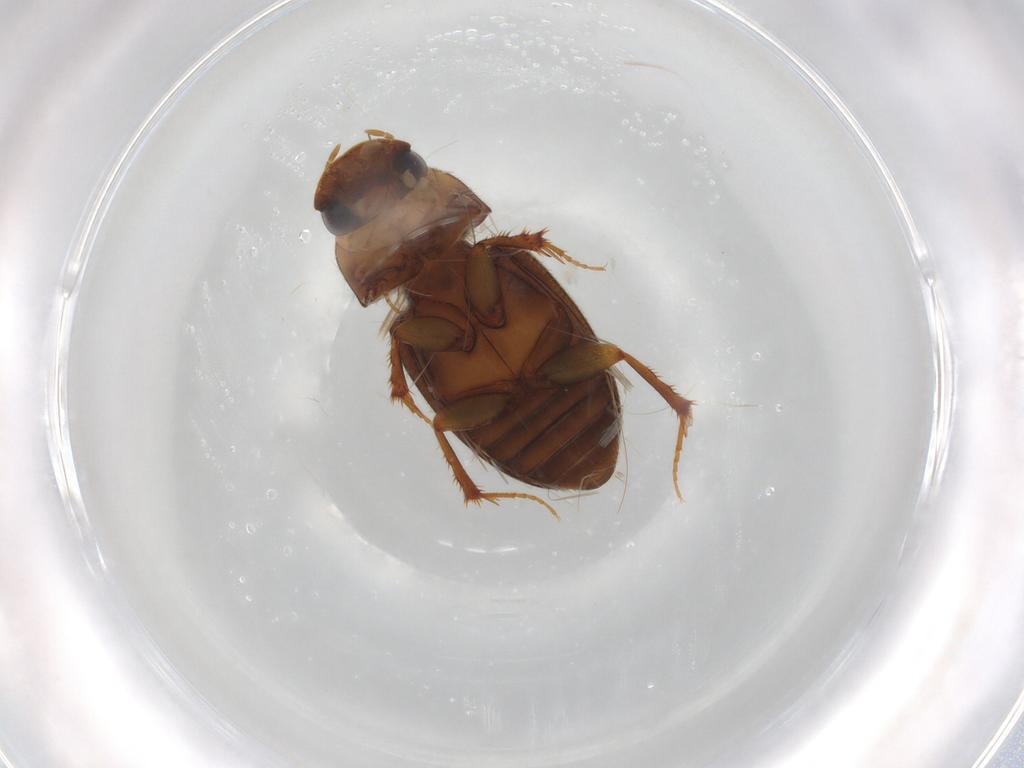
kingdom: Animalia
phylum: Arthropoda
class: Insecta
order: Coleoptera
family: Scarabaeidae
